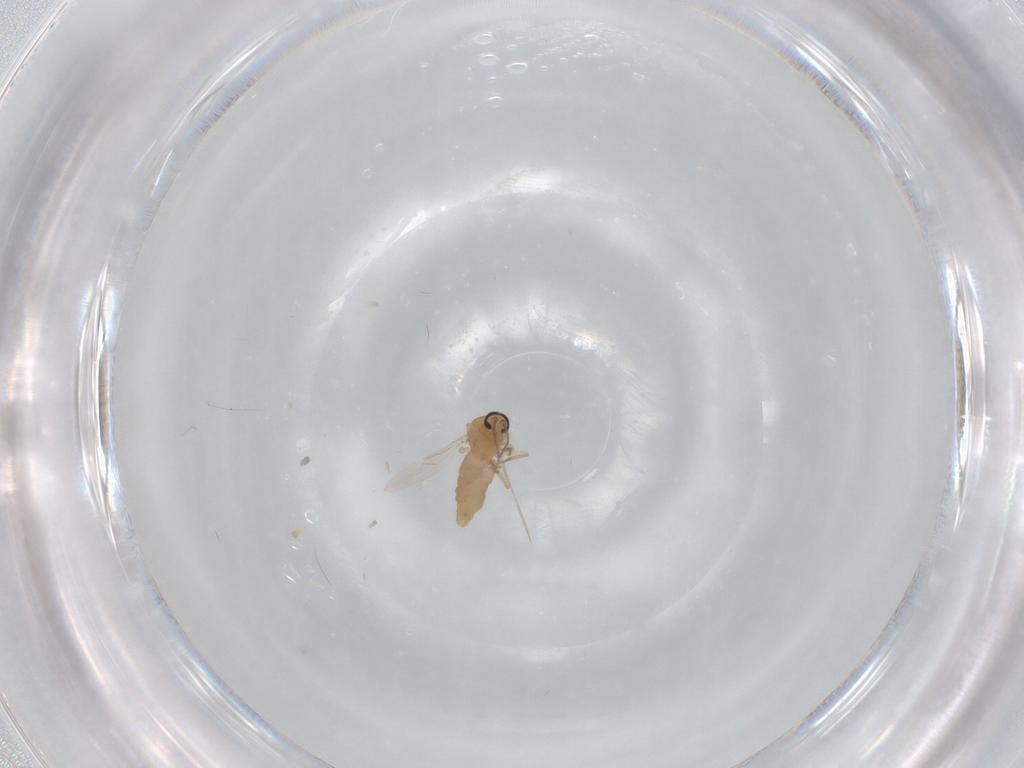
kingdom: Animalia
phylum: Arthropoda
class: Insecta
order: Diptera
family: Ceratopogonidae
